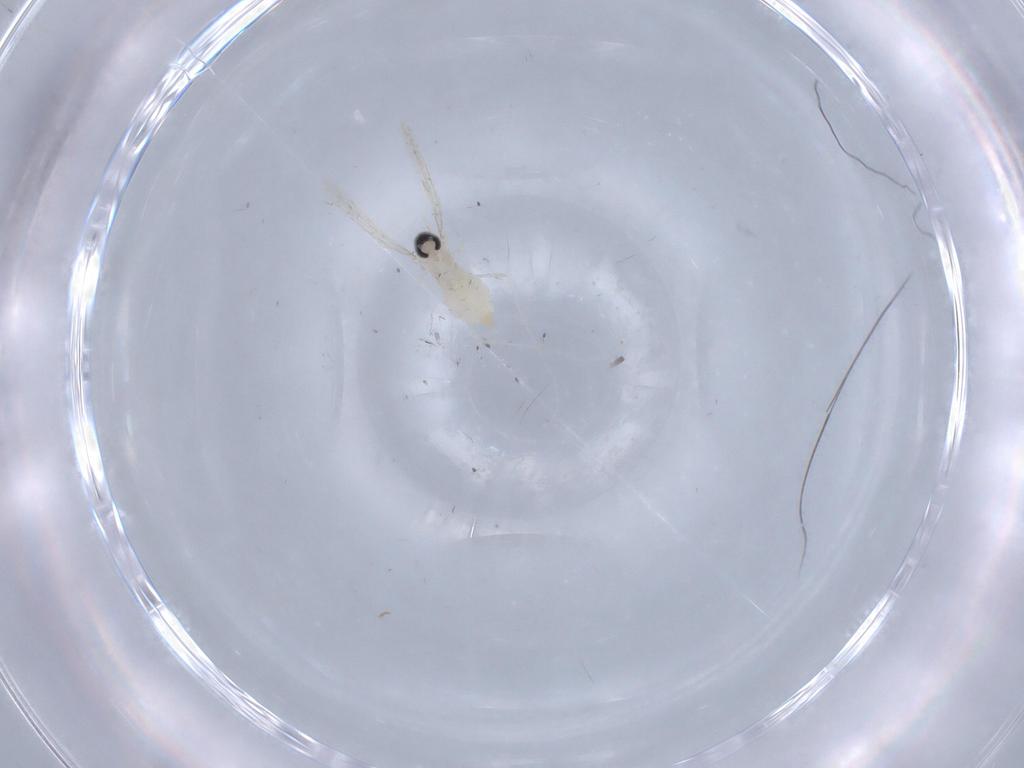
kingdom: Animalia
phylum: Arthropoda
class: Insecta
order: Diptera
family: Cecidomyiidae
